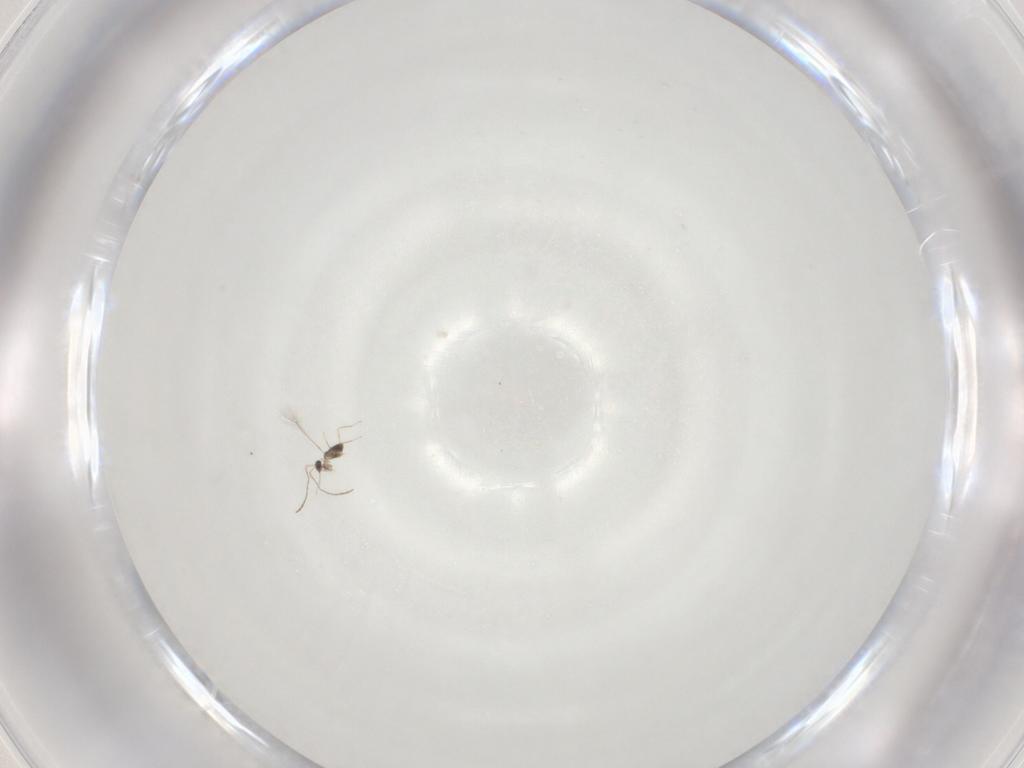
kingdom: Animalia
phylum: Arthropoda
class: Insecta
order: Hymenoptera
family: Mymaridae
